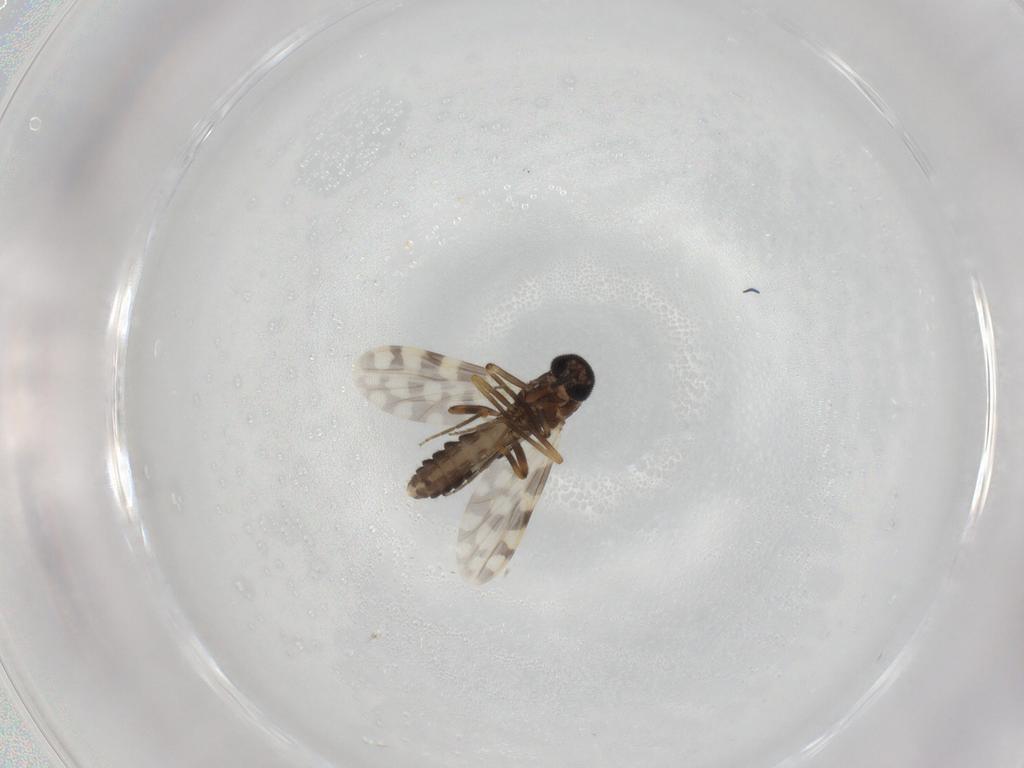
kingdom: Animalia
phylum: Arthropoda
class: Insecta
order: Diptera
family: Ceratopogonidae
